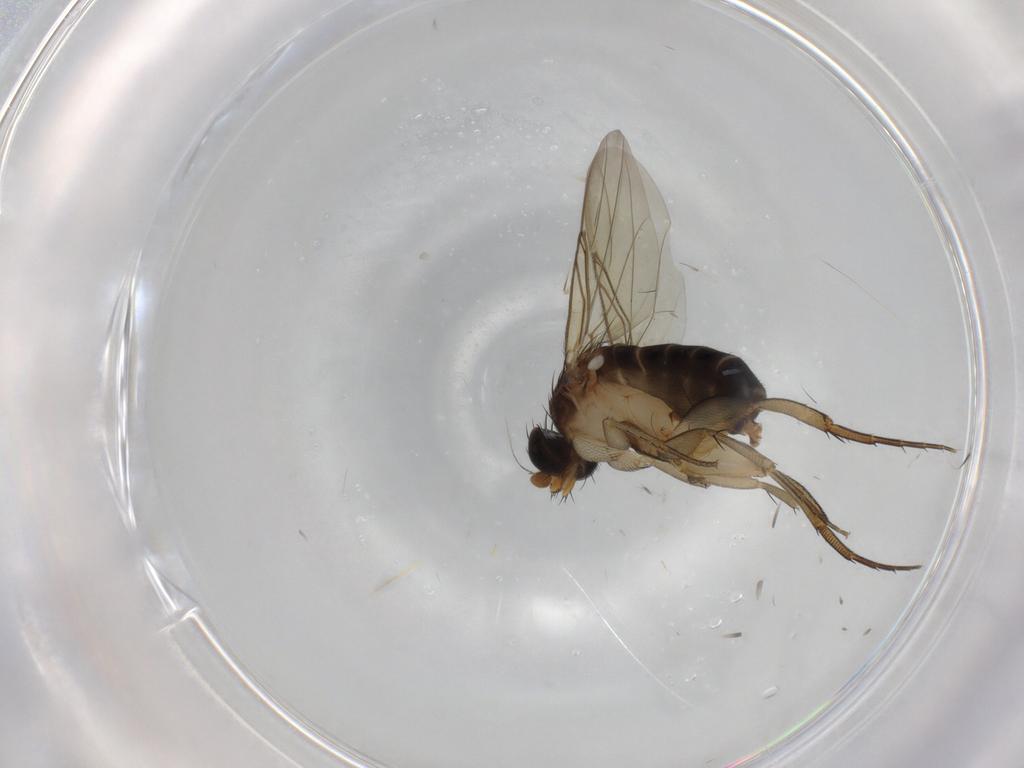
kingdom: Animalia
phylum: Arthropoda
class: Insecta
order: Diptera
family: Phoridae
